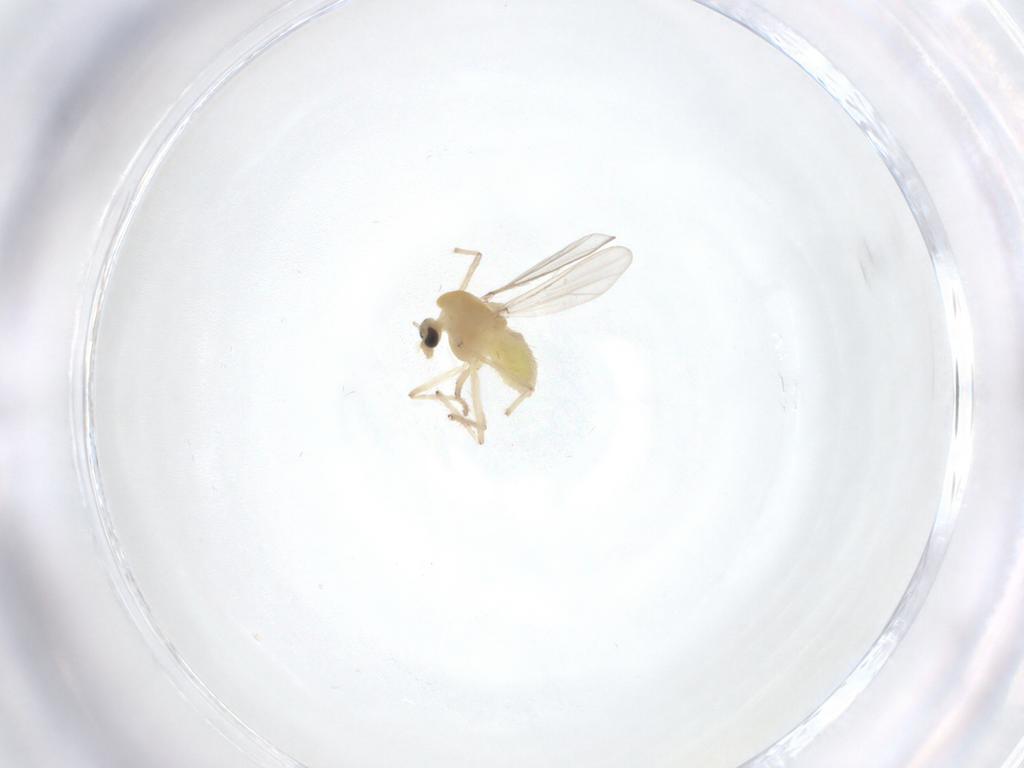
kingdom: Animalia
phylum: Arthropoda
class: Insecta
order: Diptera
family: Chironomidae
